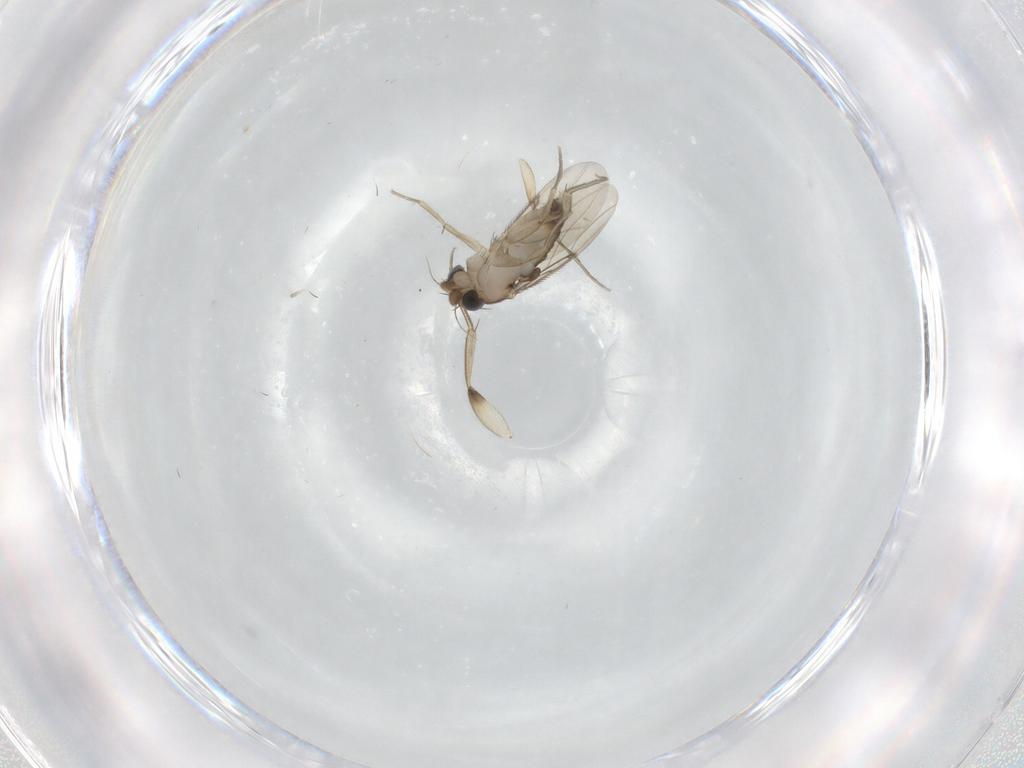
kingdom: Animalia
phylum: Arthropoda
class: Insecta
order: Diptera
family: Phoridae
